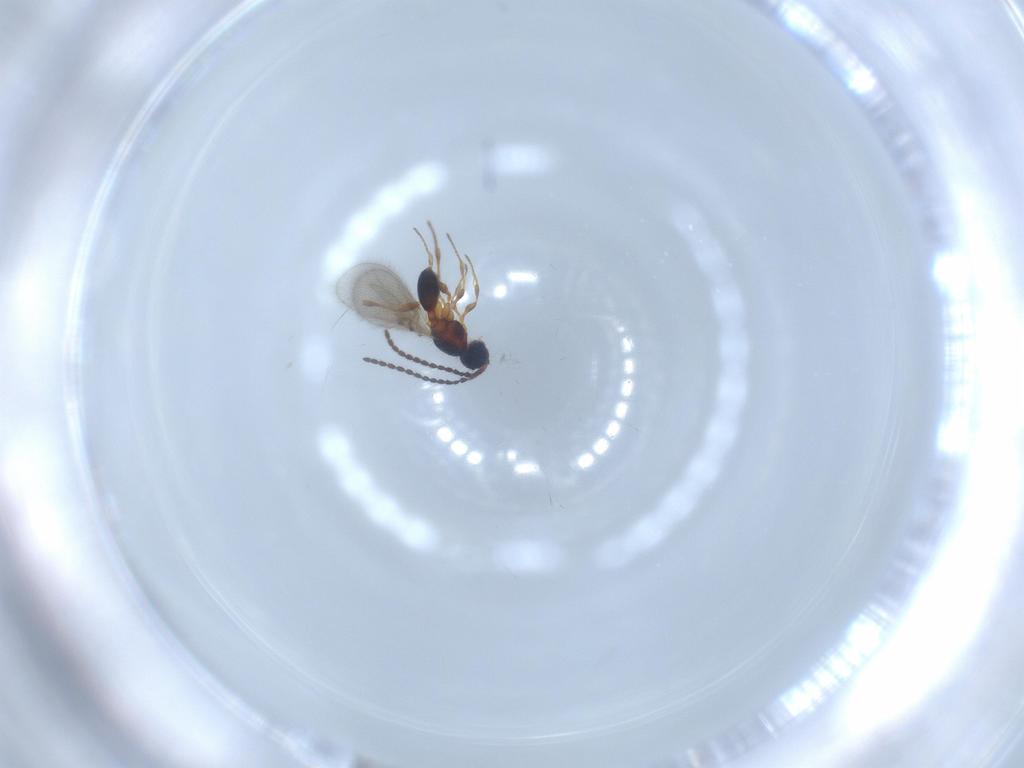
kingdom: Animalia
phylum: Arthropoda
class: Insecta
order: Hymenoptera
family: Diapriidae
